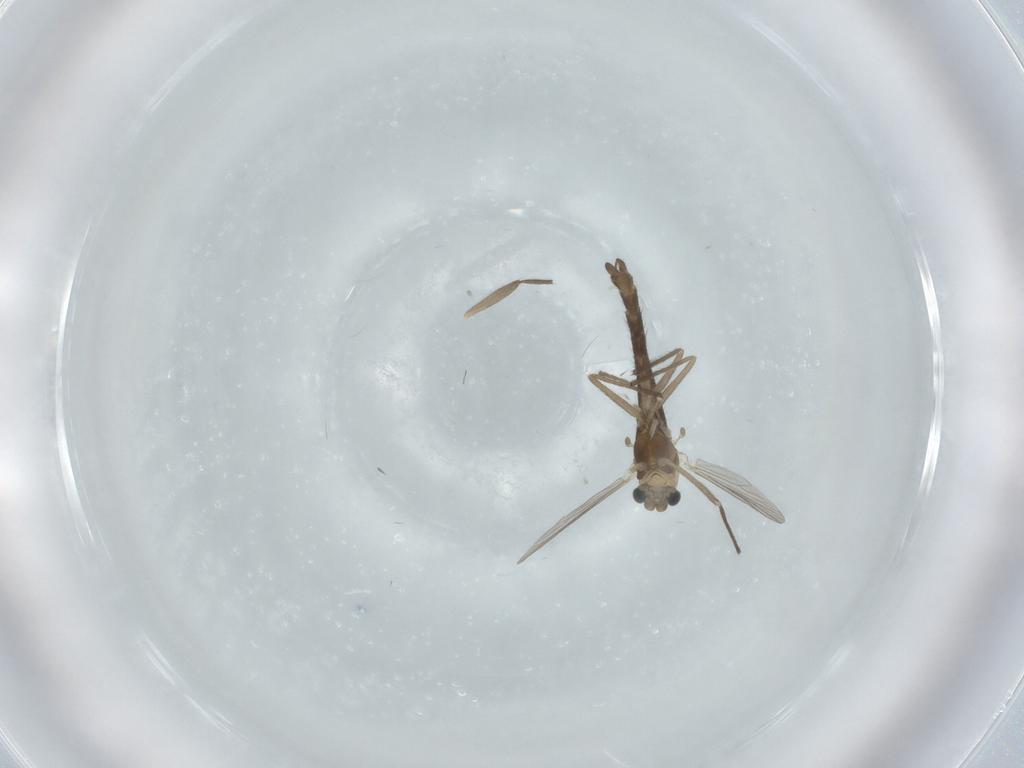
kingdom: Animalia
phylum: Arthropoda
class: Insecta
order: Diptera
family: Chironomidae
